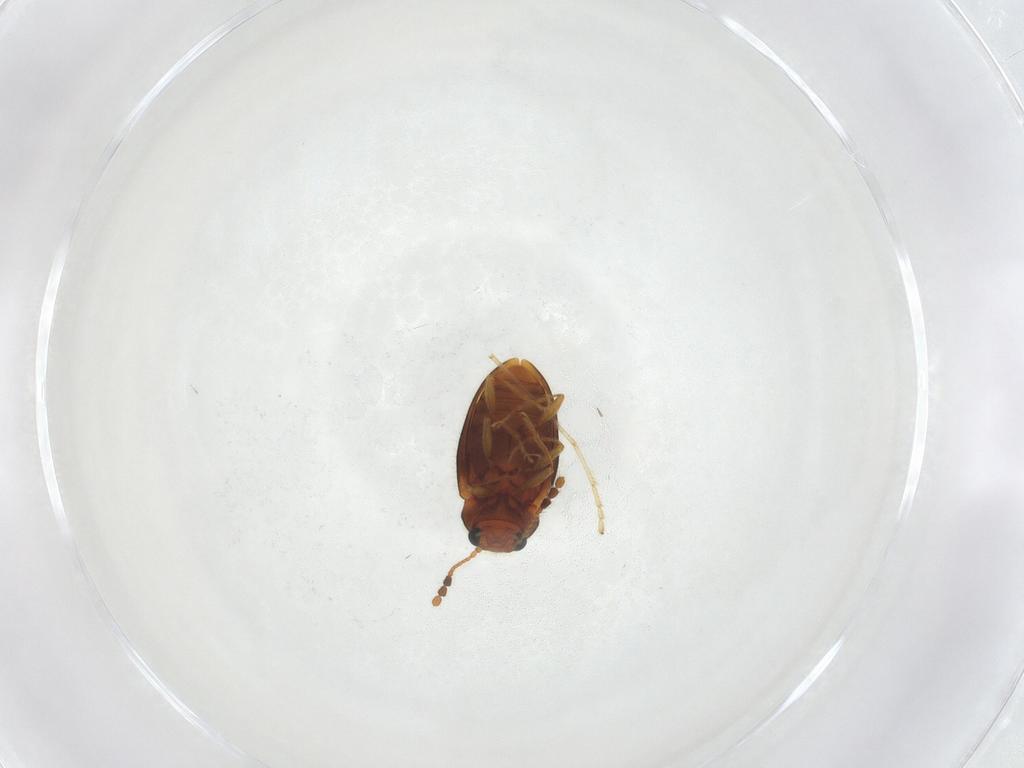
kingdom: Animalia
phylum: Arthropoda
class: Insecta
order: Coleoptera
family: Erotylidae
